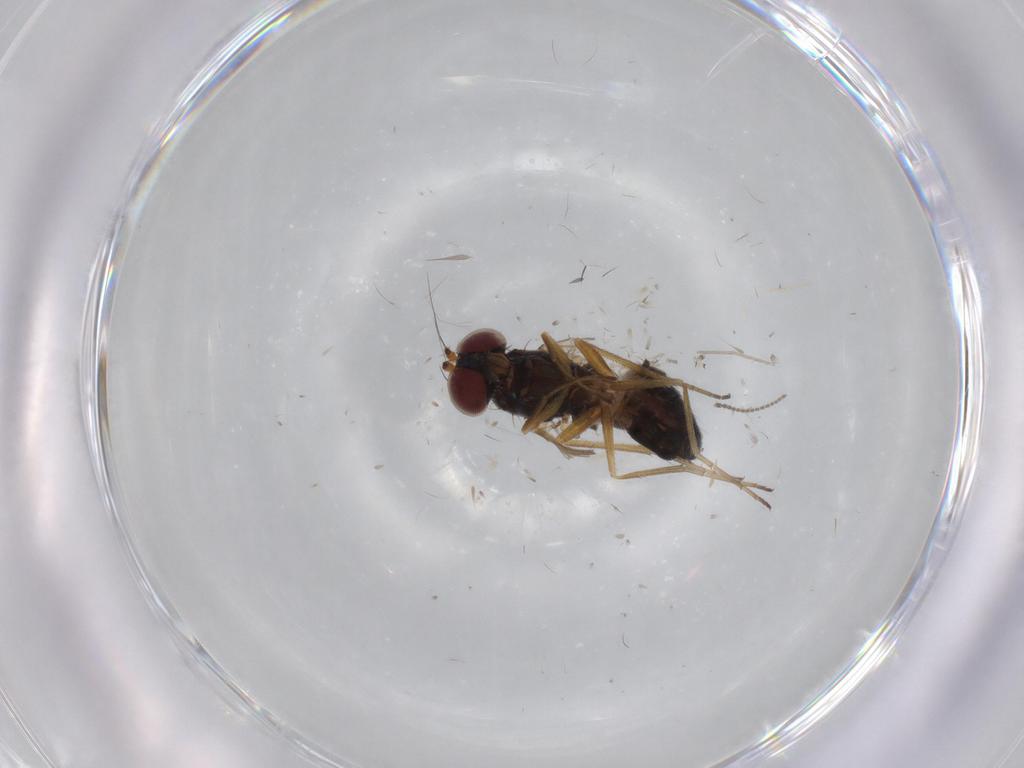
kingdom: Animalia
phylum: Arthropoda
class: Insecta
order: Diptera
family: Dolichopodidae
